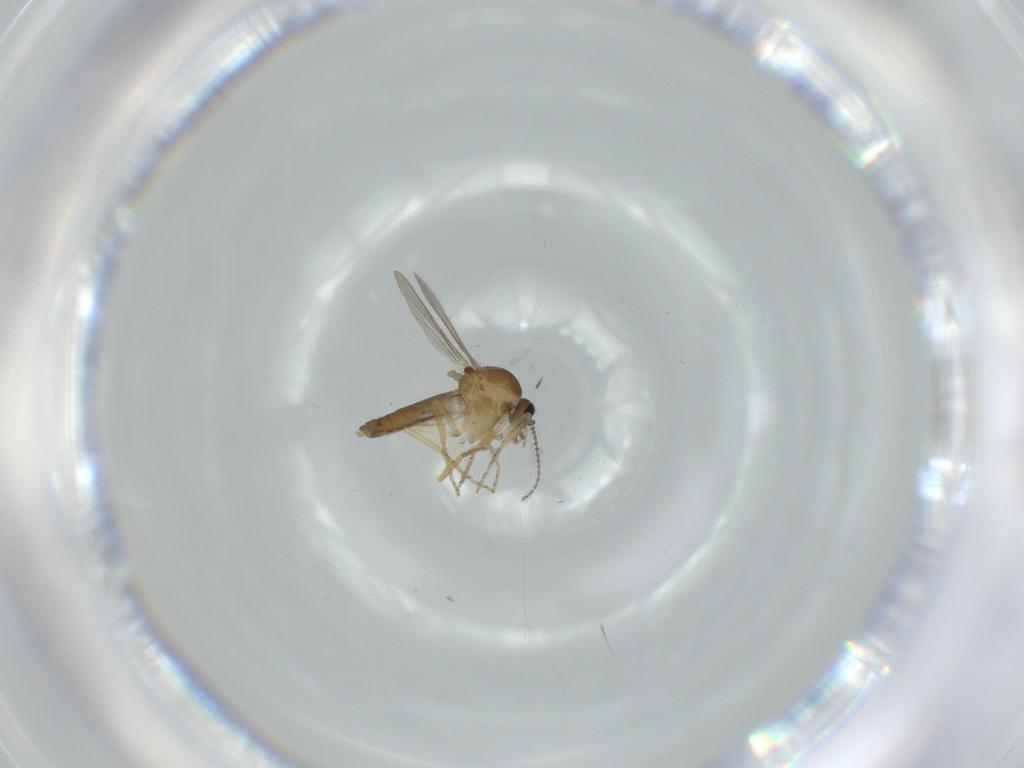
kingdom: Animalia
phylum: Arthropoda
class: Insecta
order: Diptera
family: Ceratopogonidae
